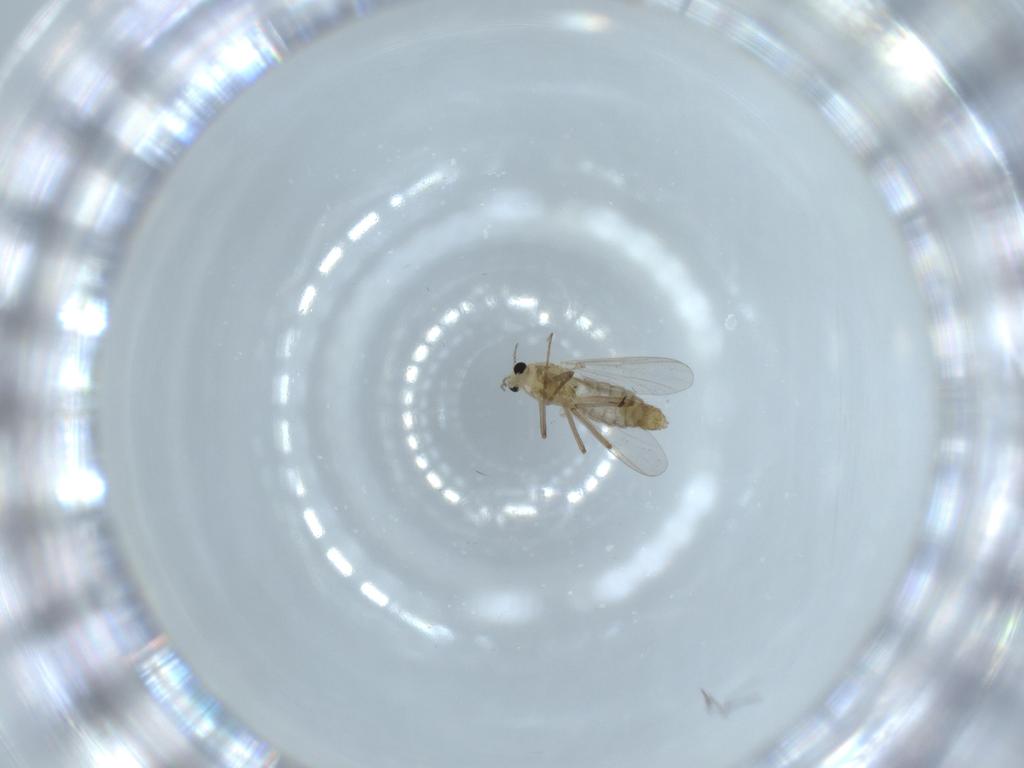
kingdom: Animalia
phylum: Arthropoda
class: Insecta
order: Diptera
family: Chironomidae
